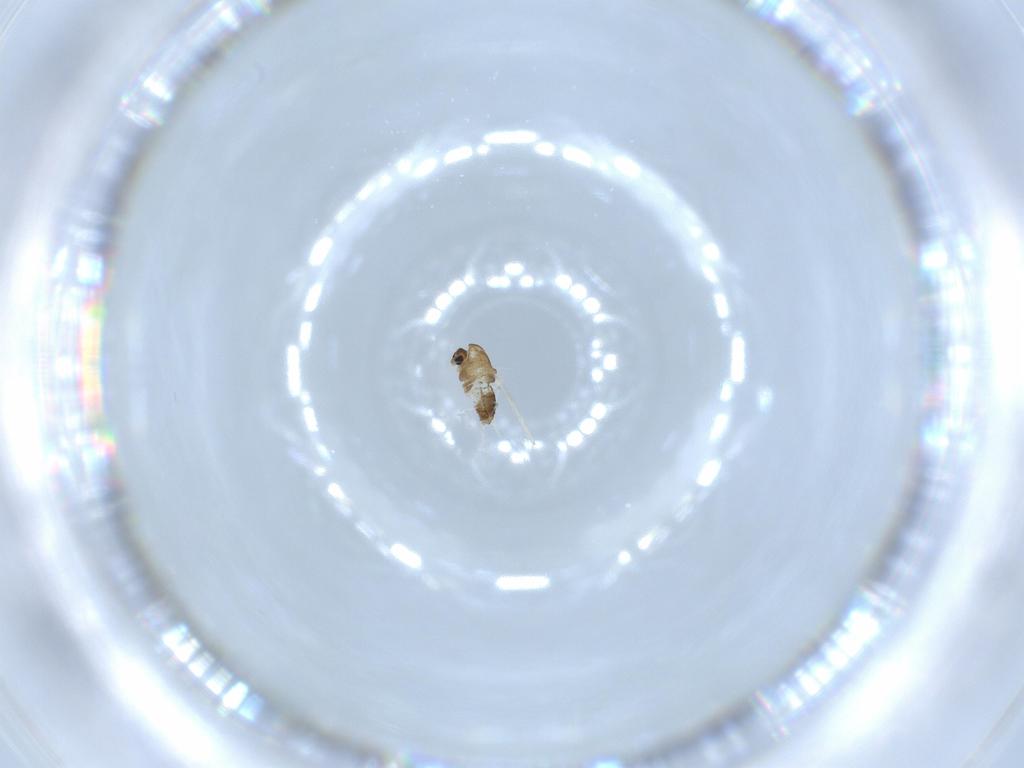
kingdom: Animalia
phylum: Arthropoda
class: Insecta
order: Diptera
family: Chironomidae
